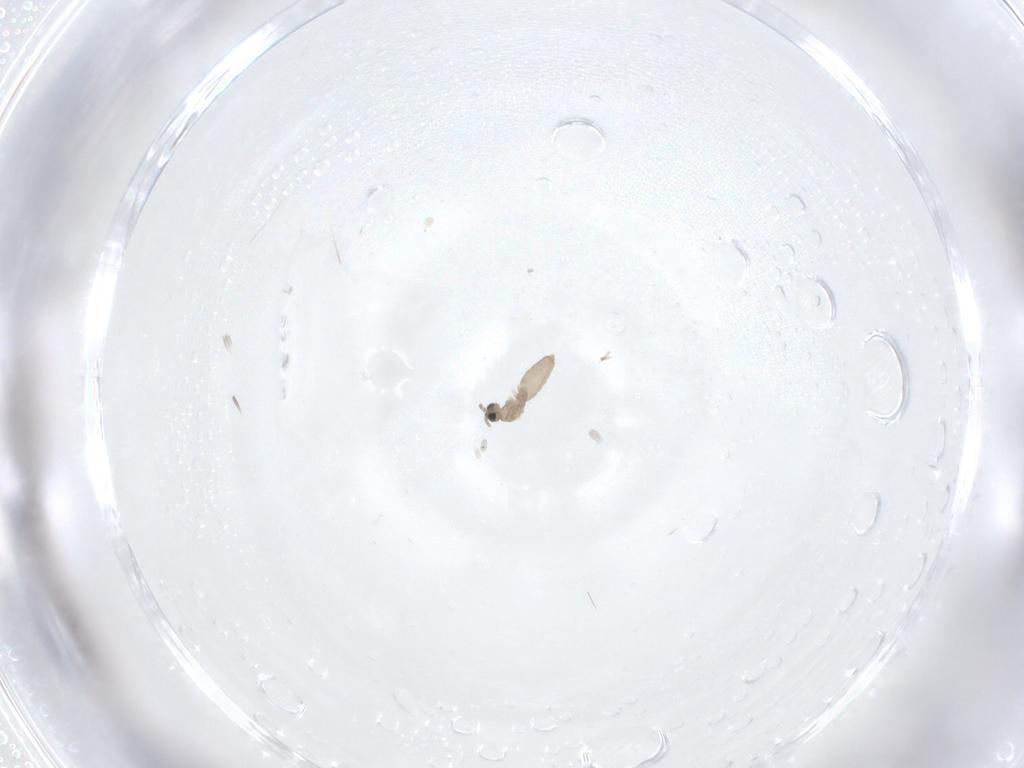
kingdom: Animalia
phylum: Arthropoda
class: Insecta
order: Diptera
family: Cecidomyiidae
